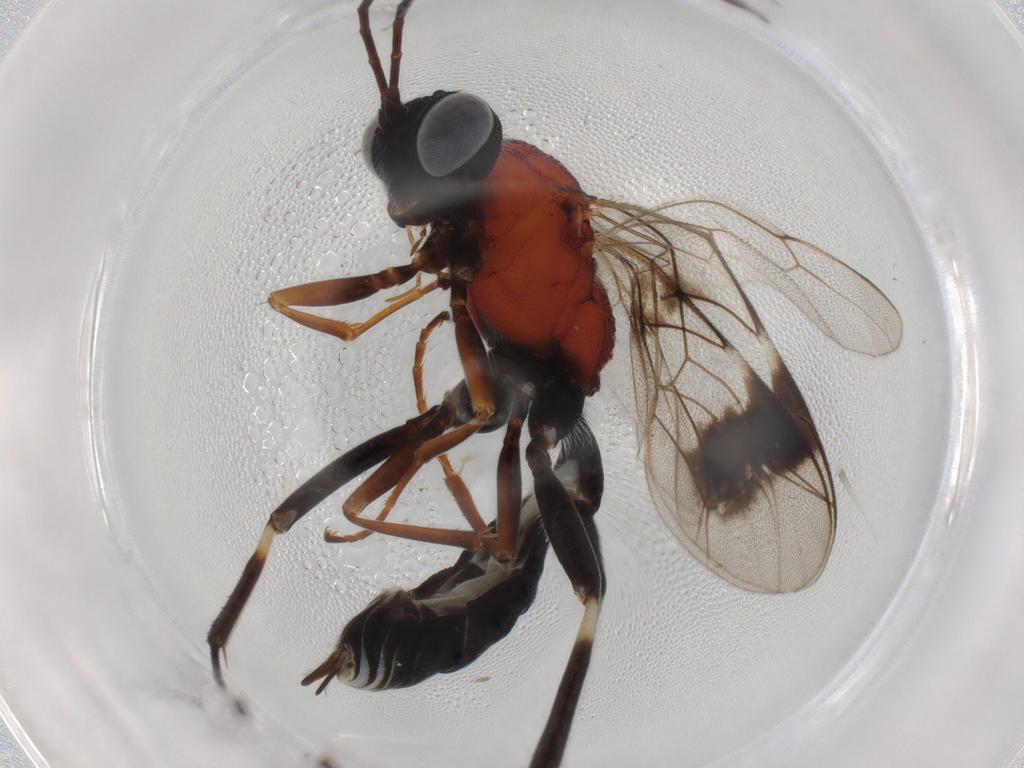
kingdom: Animalia
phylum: Arthropoda
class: Insecta
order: Hymenoptera
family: Ichneumonidae
